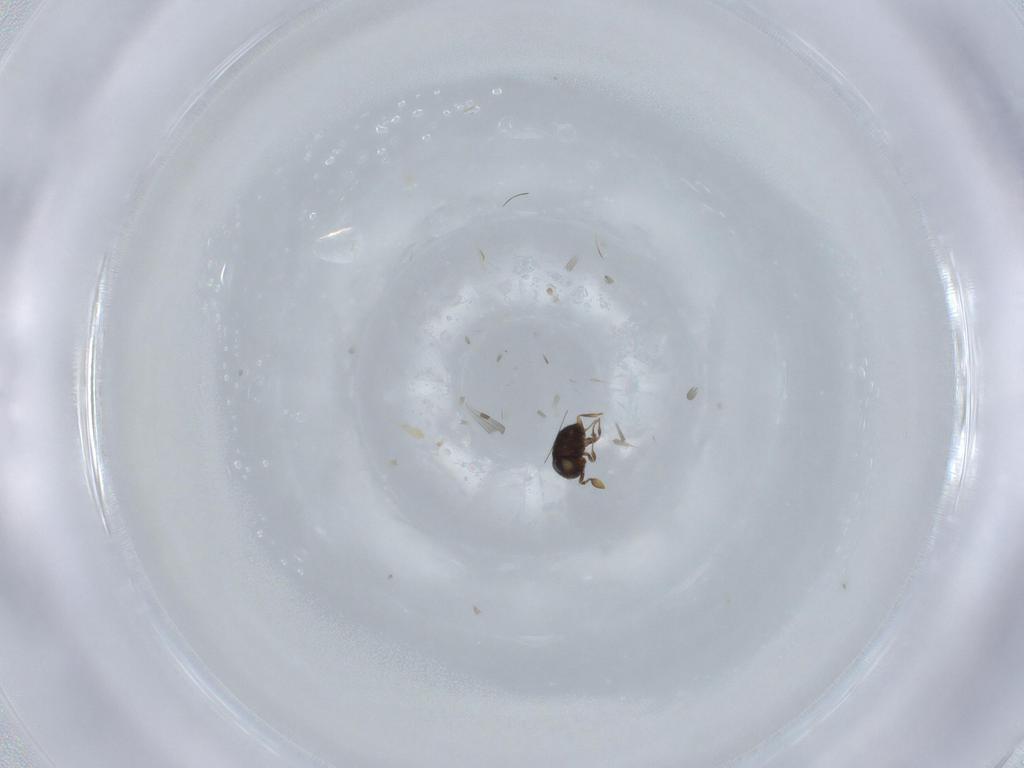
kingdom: Animalia
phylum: Arthropoda
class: Insecta
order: Hymenoptera
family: Scelionidae
